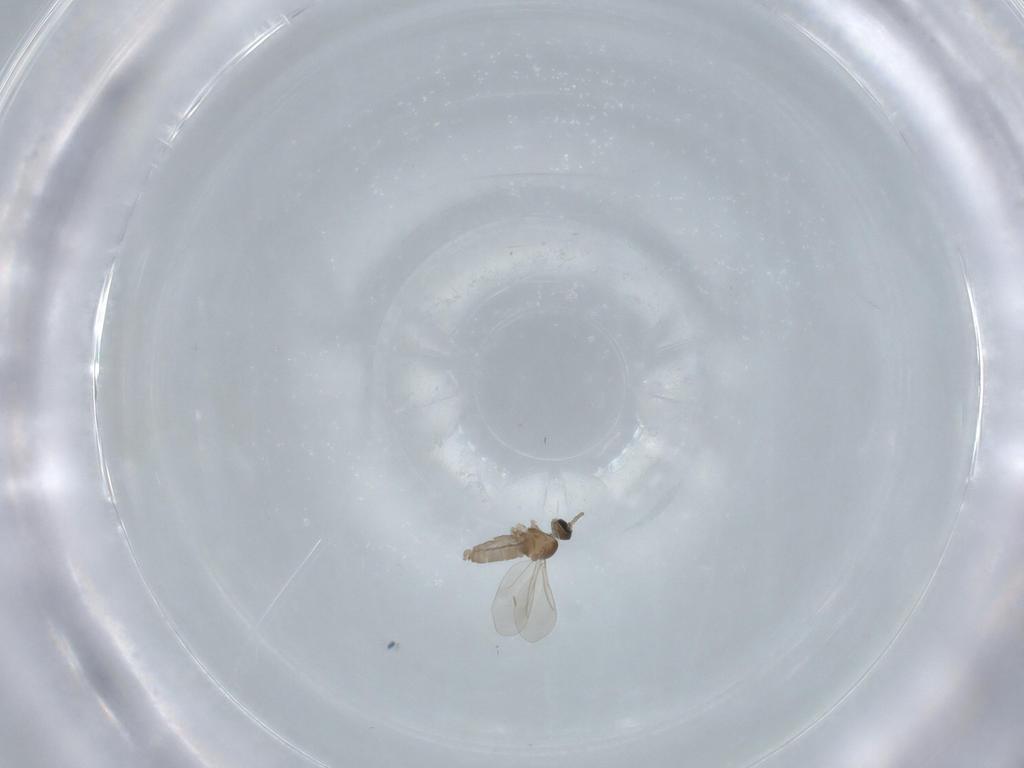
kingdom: Animalia
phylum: Arthropoda
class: Insecta
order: Diptera
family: Cecidomyiidae
